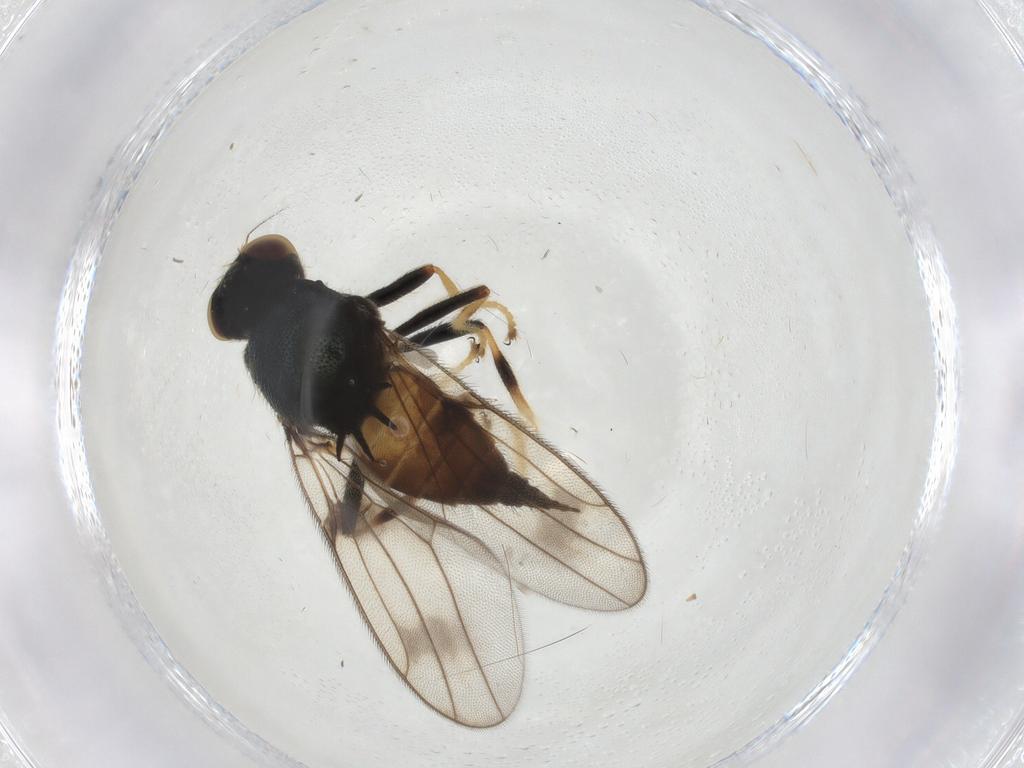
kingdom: Animalia
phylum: Arthropoda
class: Insecta
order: Diptera
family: Chloropidae
